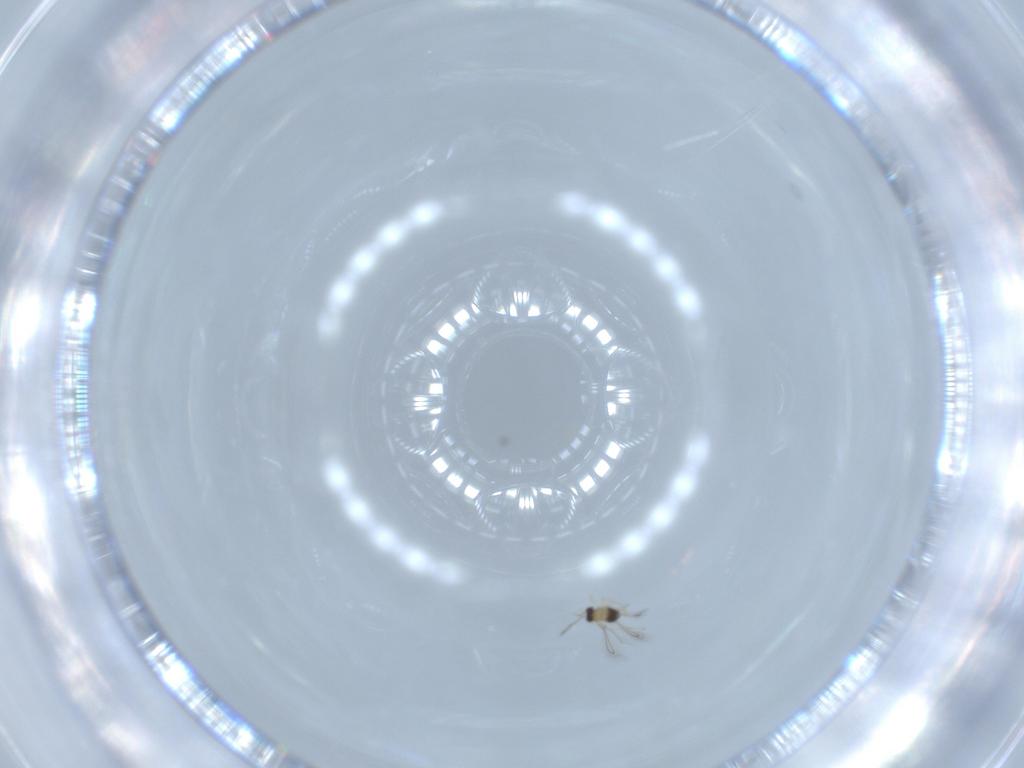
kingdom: Animalia
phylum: Arthropoda
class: Insecta
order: Hymenoptera
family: Mymaridae
